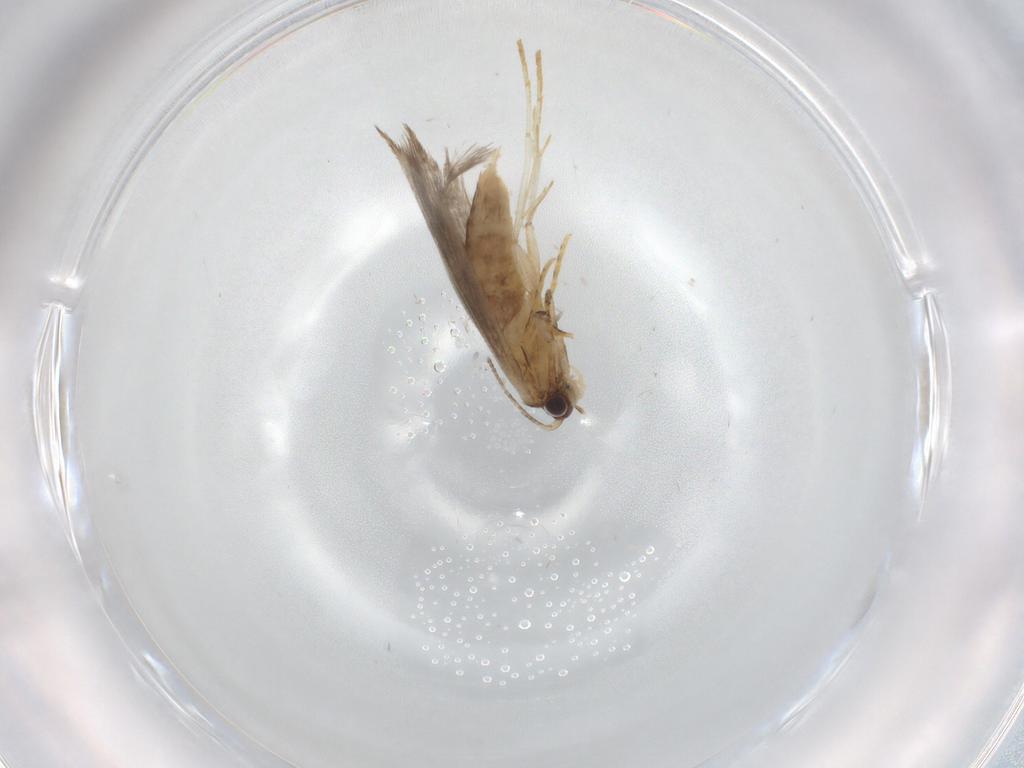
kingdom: Animalia
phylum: Arthropoda
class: Insecta
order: Lepidoptera
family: Tineidae
